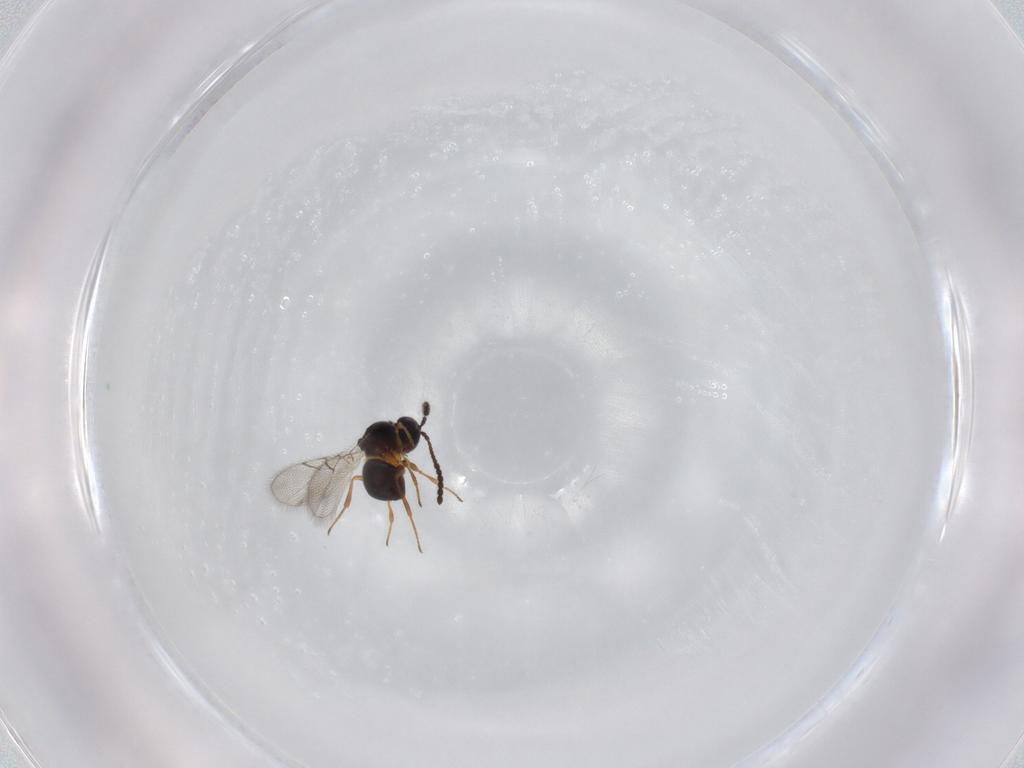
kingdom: Animalia
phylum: Arthropoda
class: Insecta
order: Hymenoptera
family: Figitidae
